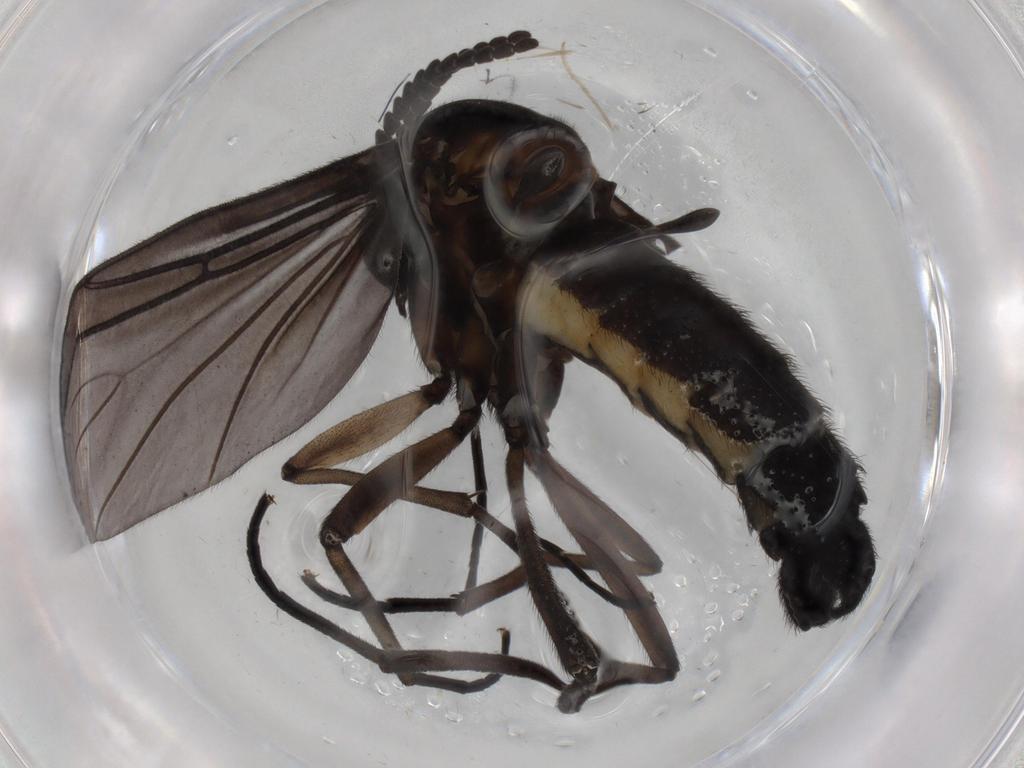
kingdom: Animalia
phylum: Arthropoda
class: Insecta
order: Diptera
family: Sciaridae
